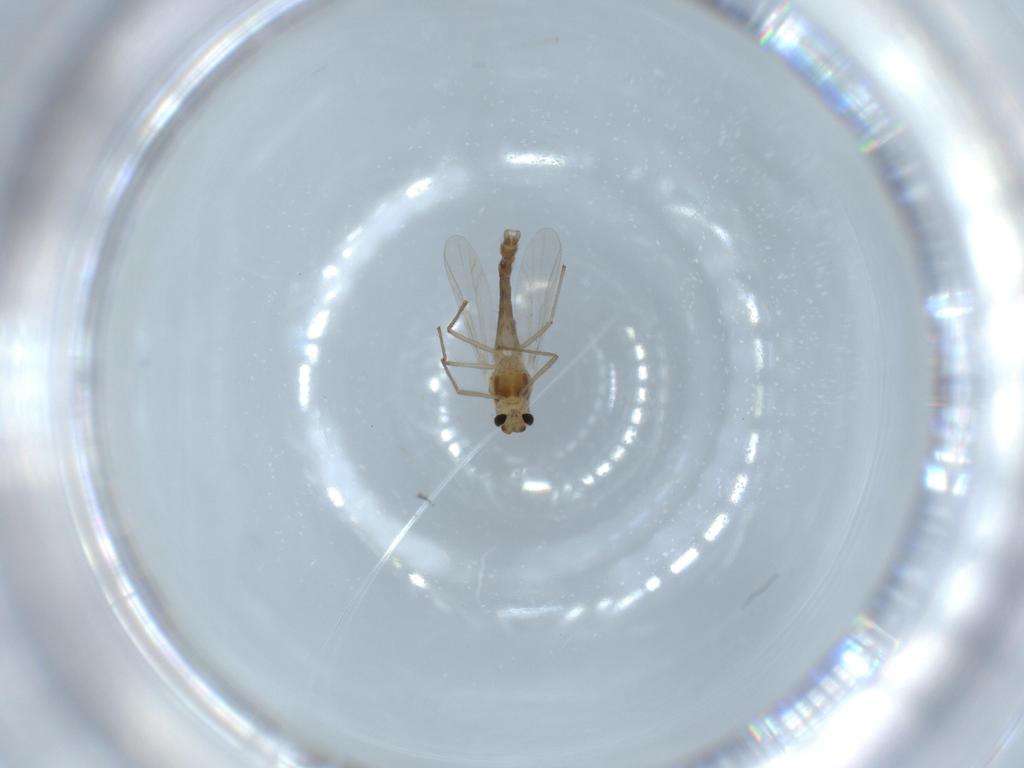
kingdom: Animalia
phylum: Arthropoda
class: Insecta
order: Diptera
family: Chironomidae
